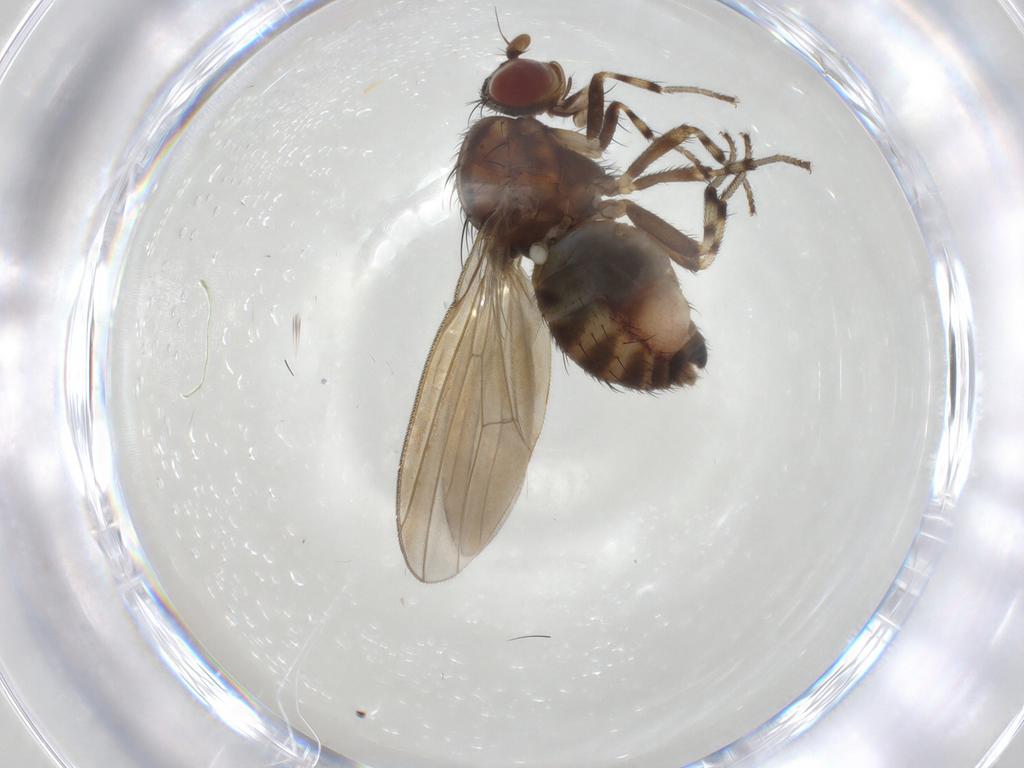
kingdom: Animalia
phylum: Arthropoda
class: Insecta
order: Diptera
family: Lauxaniidae
